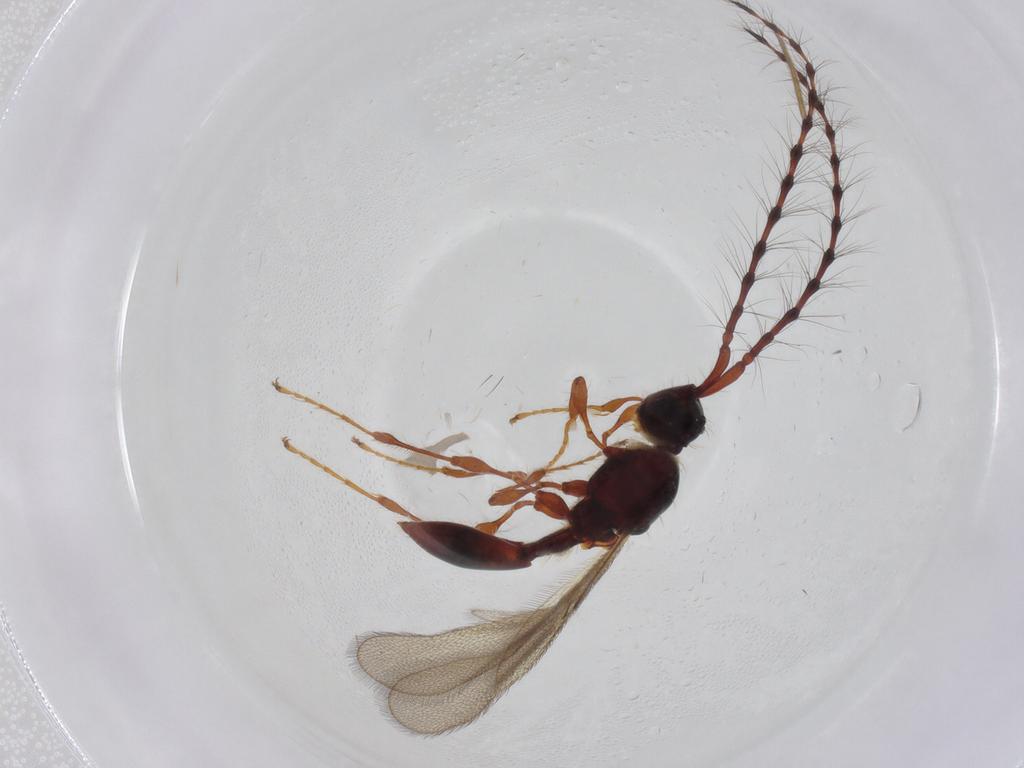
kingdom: Animalia
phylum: Arthropoda
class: Insecta
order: Hymenoptera
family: Diapriidae
